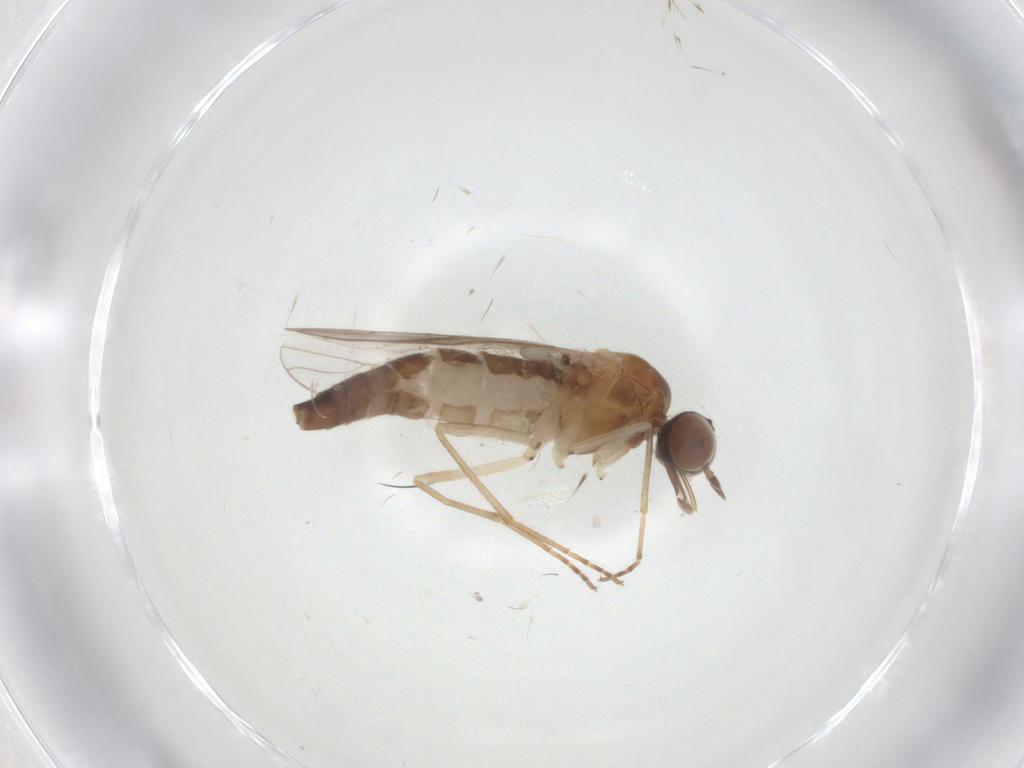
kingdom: Animalia
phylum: Arthropoda
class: Insecta
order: Diptera
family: Scenopinidae
